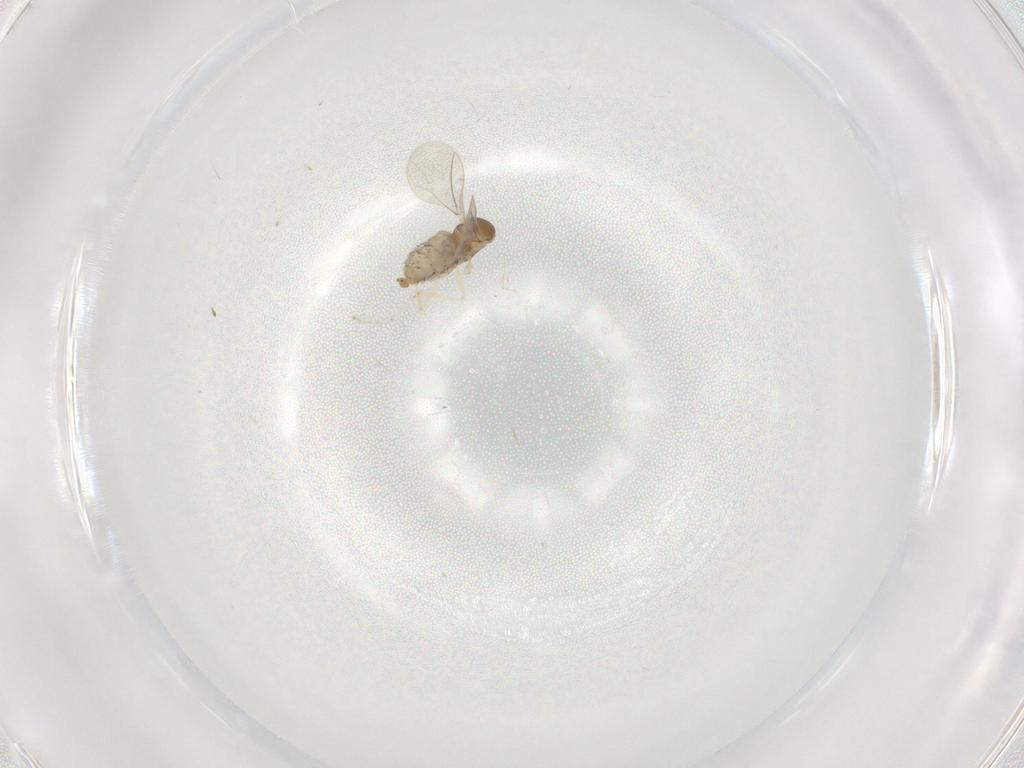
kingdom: Animalia
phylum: Arthropoda
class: Insecta
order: Diptera
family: Cecidomyiidae
